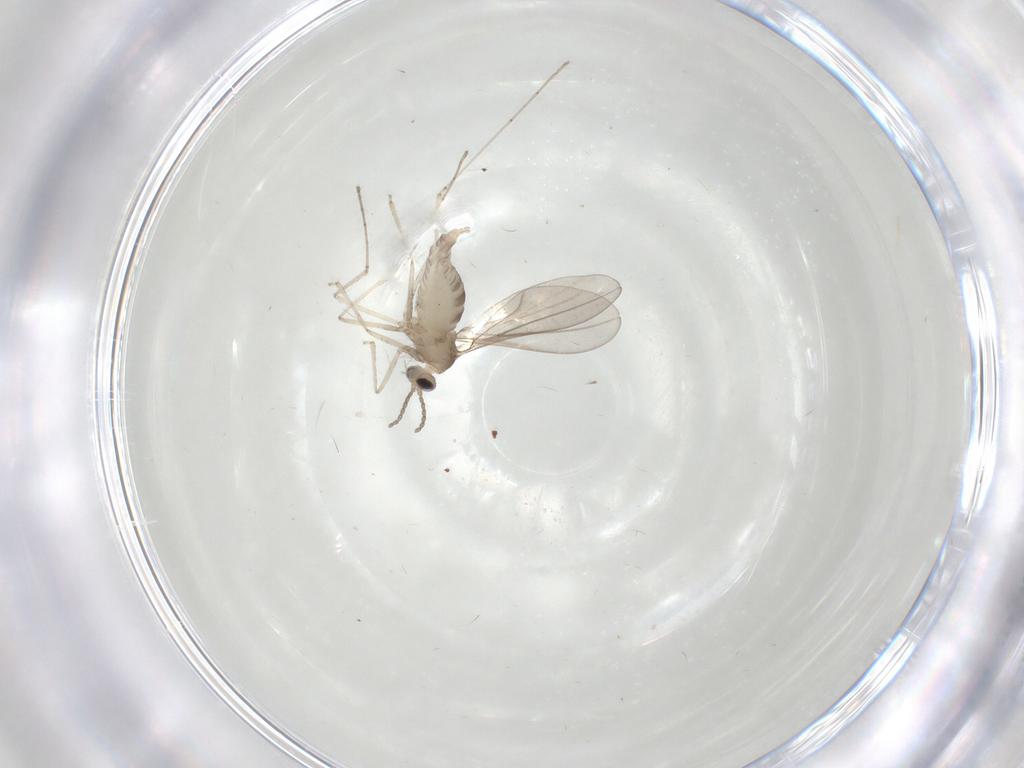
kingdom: Animalia
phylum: Arthropoda
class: Insecta
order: Diptera
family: Cecidomyiidae
